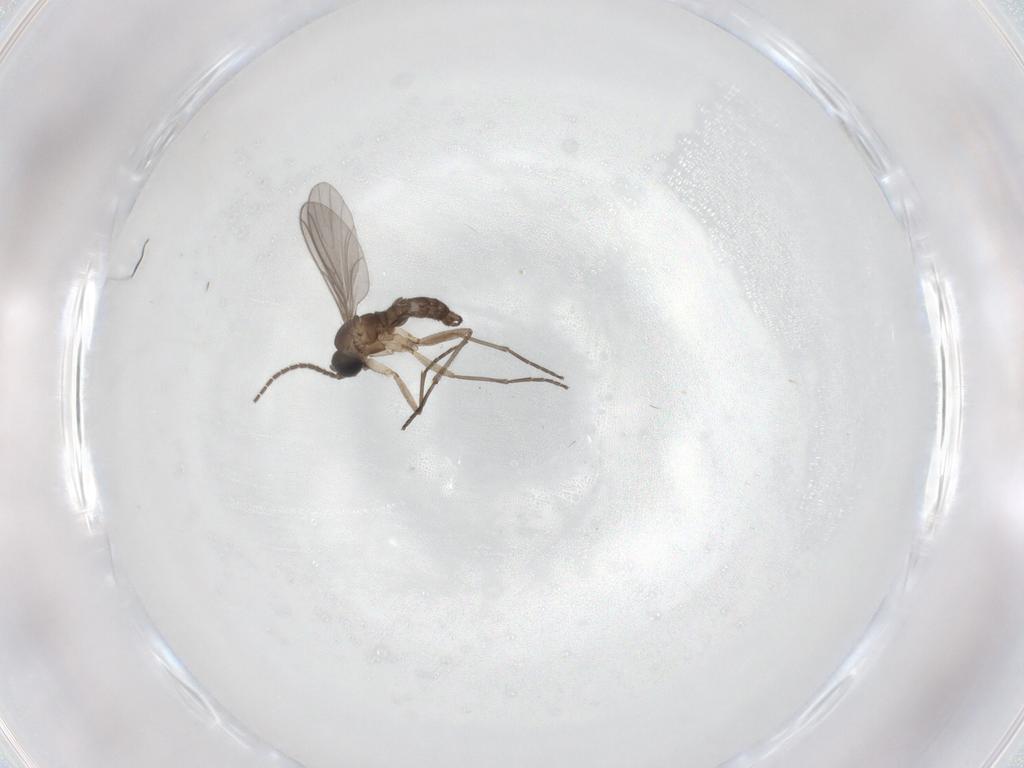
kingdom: Animalia
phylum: Arthropoda
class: Insecta
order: Diptera
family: Sciaridae
